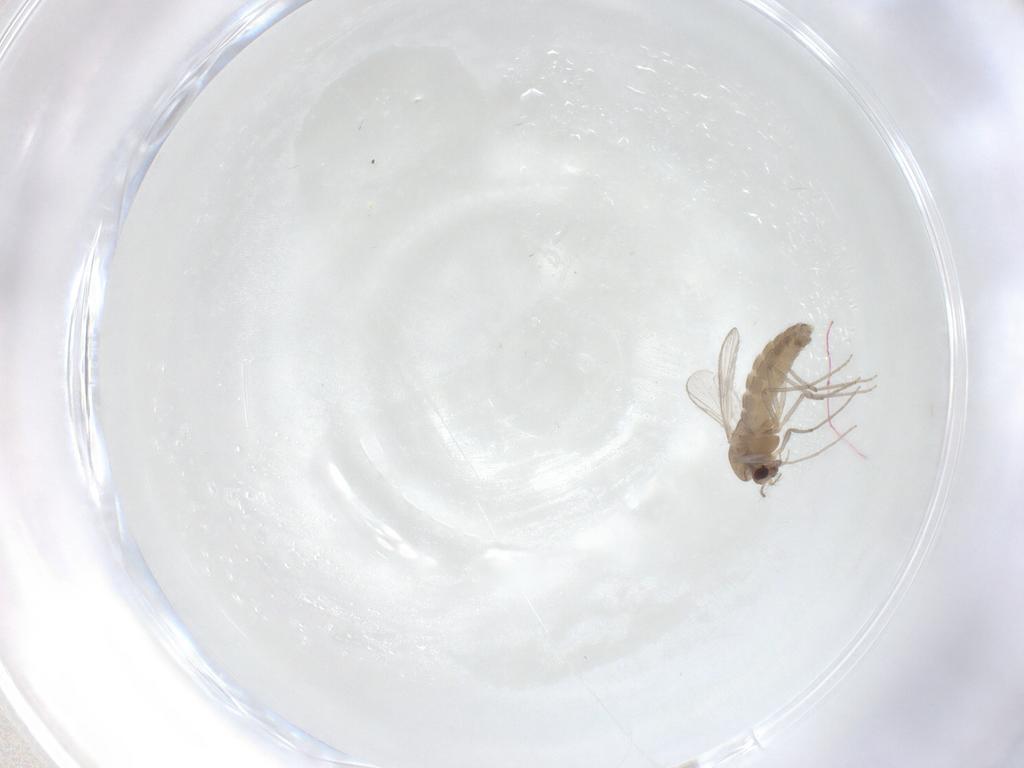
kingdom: Animalia
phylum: Arthropoda
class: Insecta
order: Diptera
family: Chironomidae
